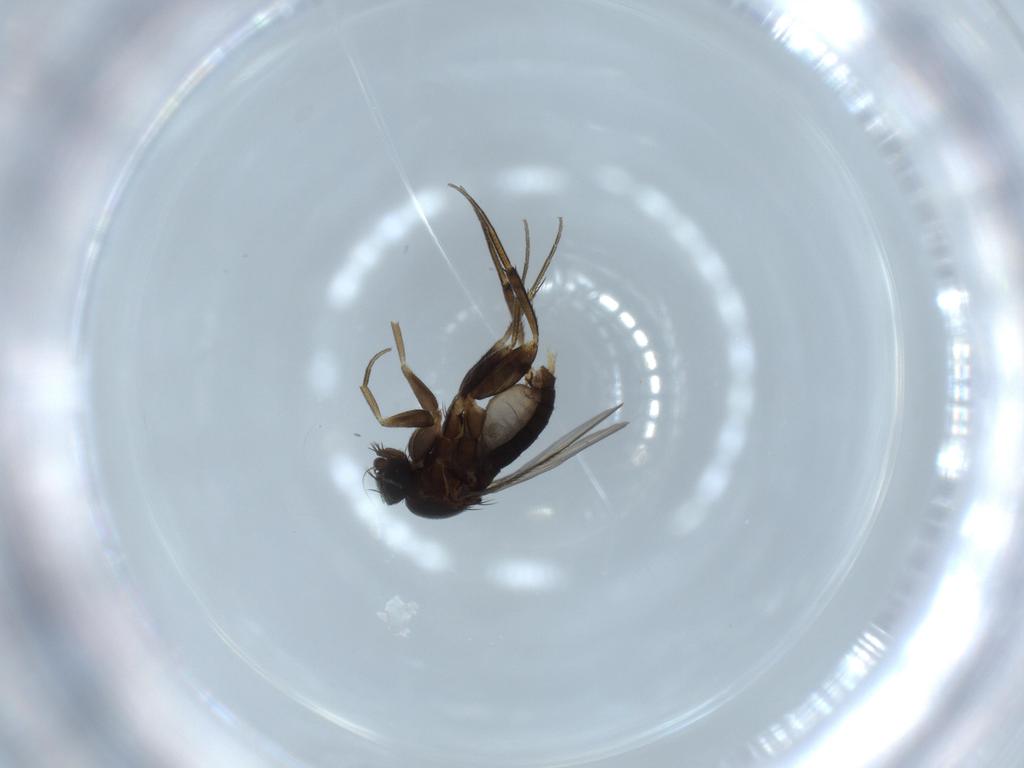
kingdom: Animalia
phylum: Arthropoda
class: Insecta
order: Diptera
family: Phoridae
